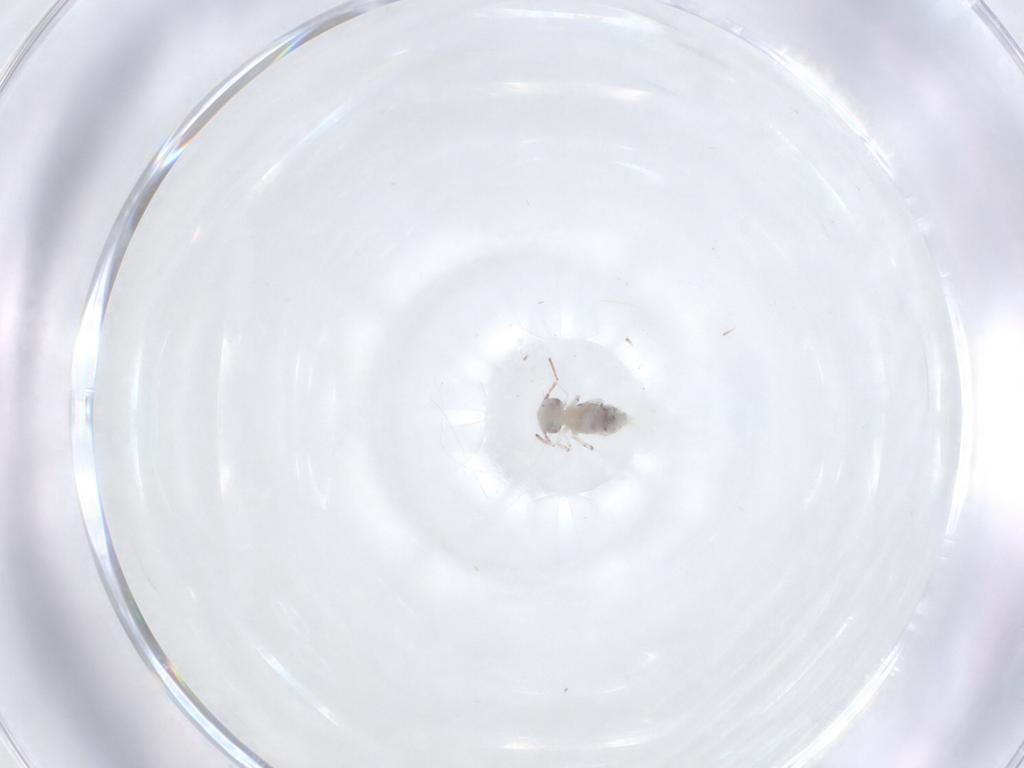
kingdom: Animalia
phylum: Arthropoda
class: Collembola
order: Symphypleona
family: Bourletiellidae
